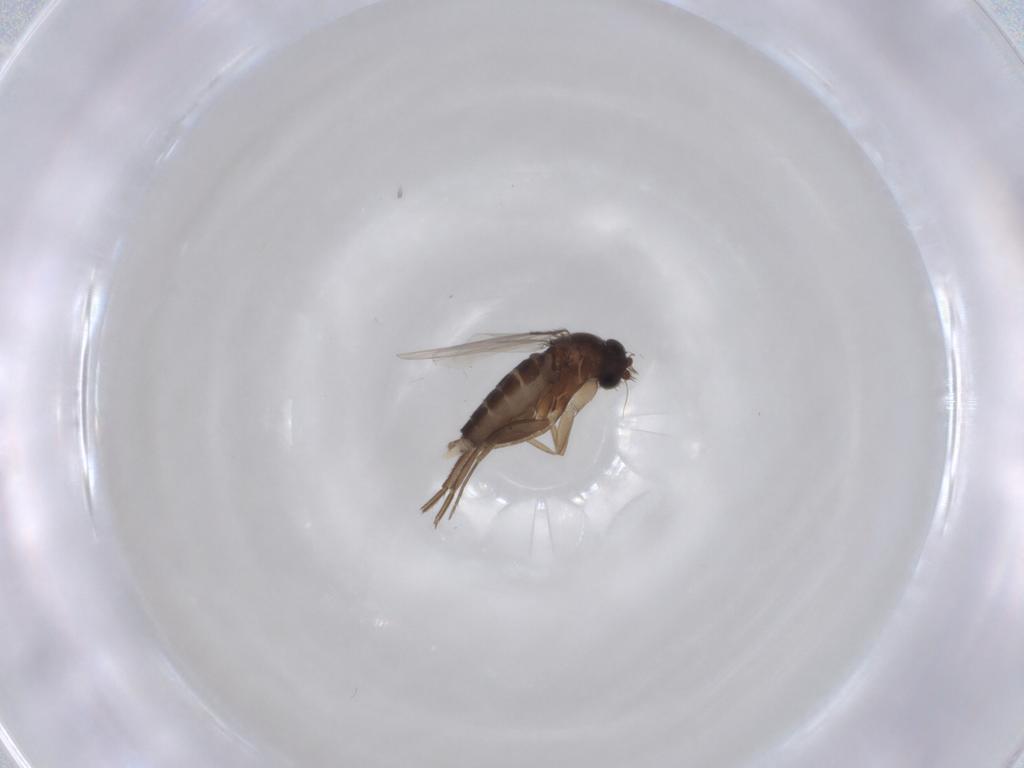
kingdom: Animalia
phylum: Arthropoda
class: Insecta
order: Diptera
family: Phoridae
